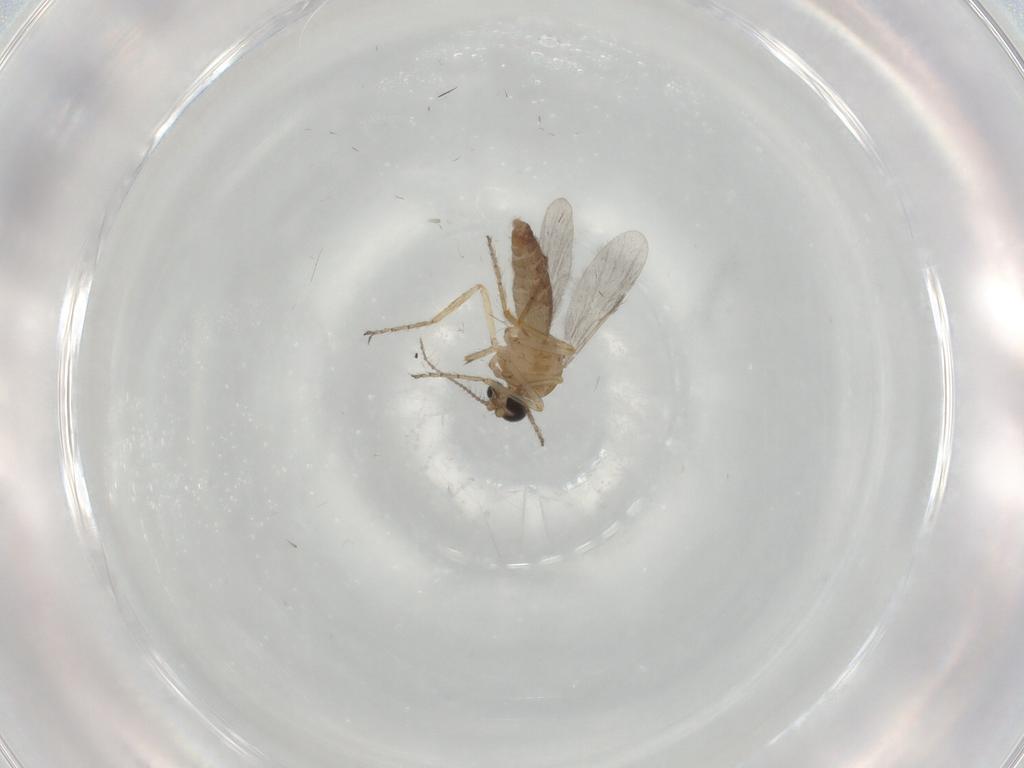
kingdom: Animalia
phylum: Arthropoda
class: Insecta
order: Diptera
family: Ceratopogonidae
